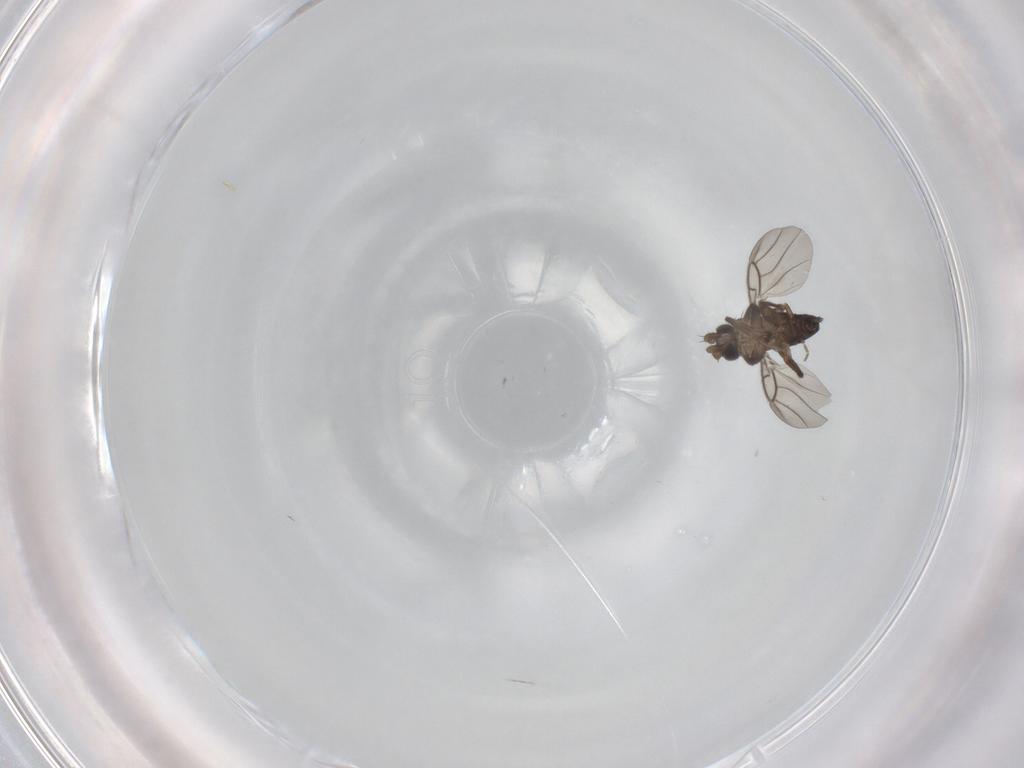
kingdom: Animalia
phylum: Arthropoda
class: Insecta
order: Diptera
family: Phoridae
